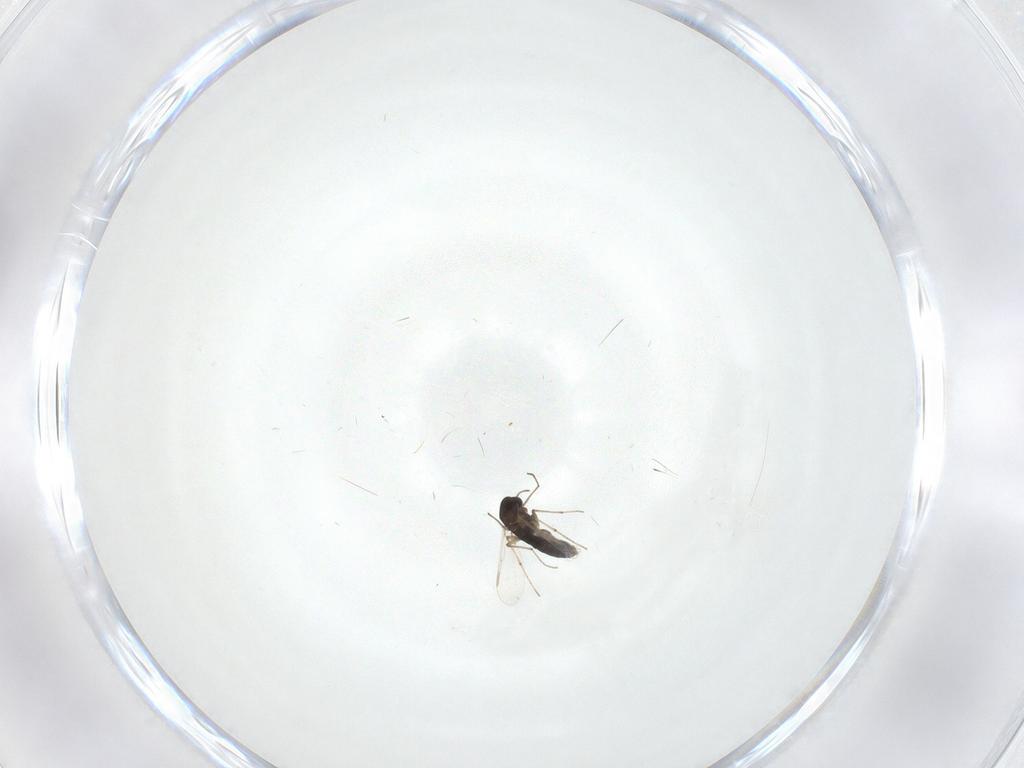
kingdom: Animalia
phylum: Arthropoda
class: Insecta
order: Diptera
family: Chironomidae
